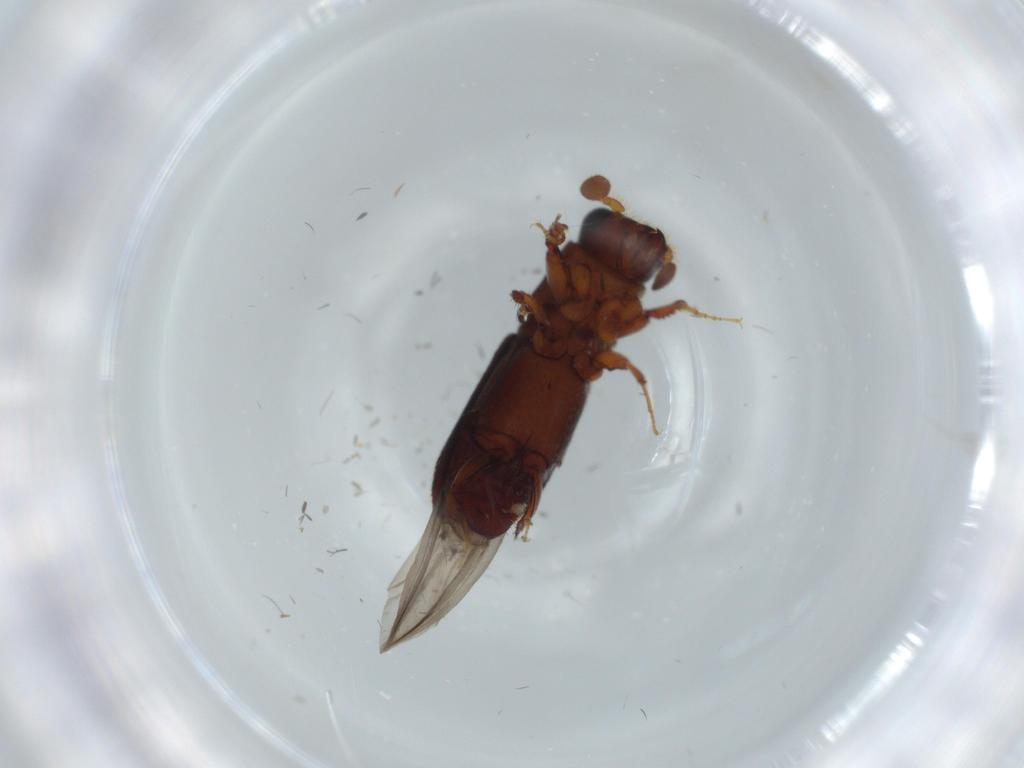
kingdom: Animalia
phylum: Arthropoda
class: Insecta
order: Coleoptera
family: Curculionidae
